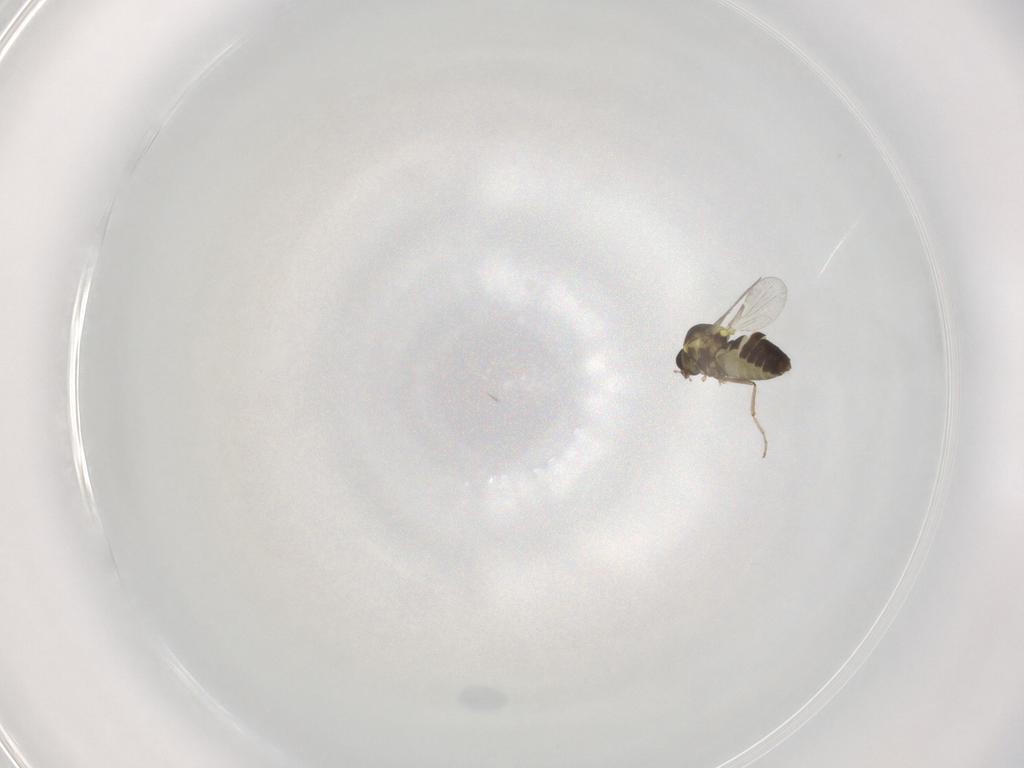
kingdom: Animalia
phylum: Arthropoda
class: Insecta
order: Diptera
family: Ceratopogonidae
